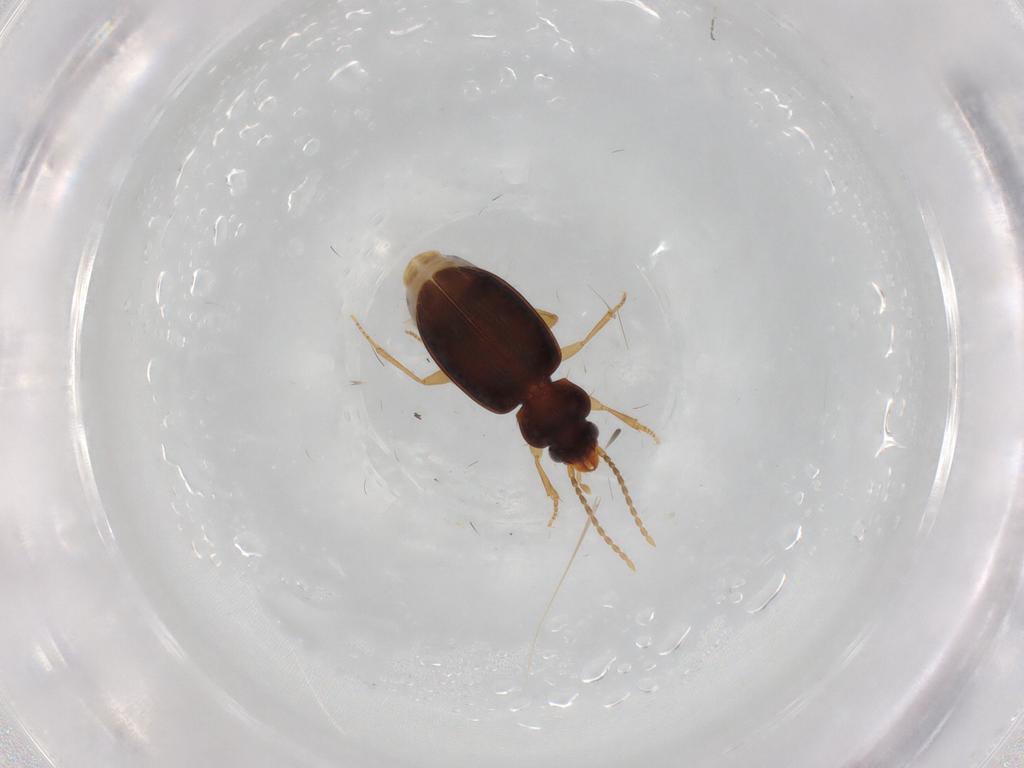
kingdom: Animalia
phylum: Arthropoda
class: Insecta
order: Coleoptera
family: Carabidae
